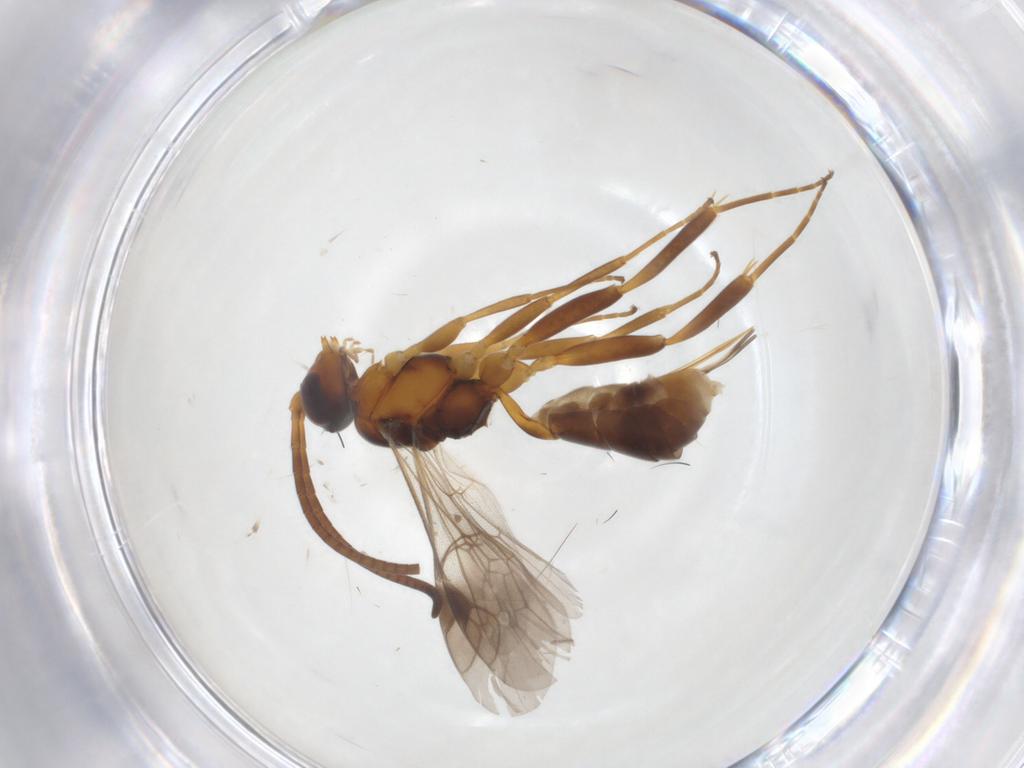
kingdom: Animalia
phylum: Arthropoda
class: Insecta
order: Hymenoptera
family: Ichneumonidae
